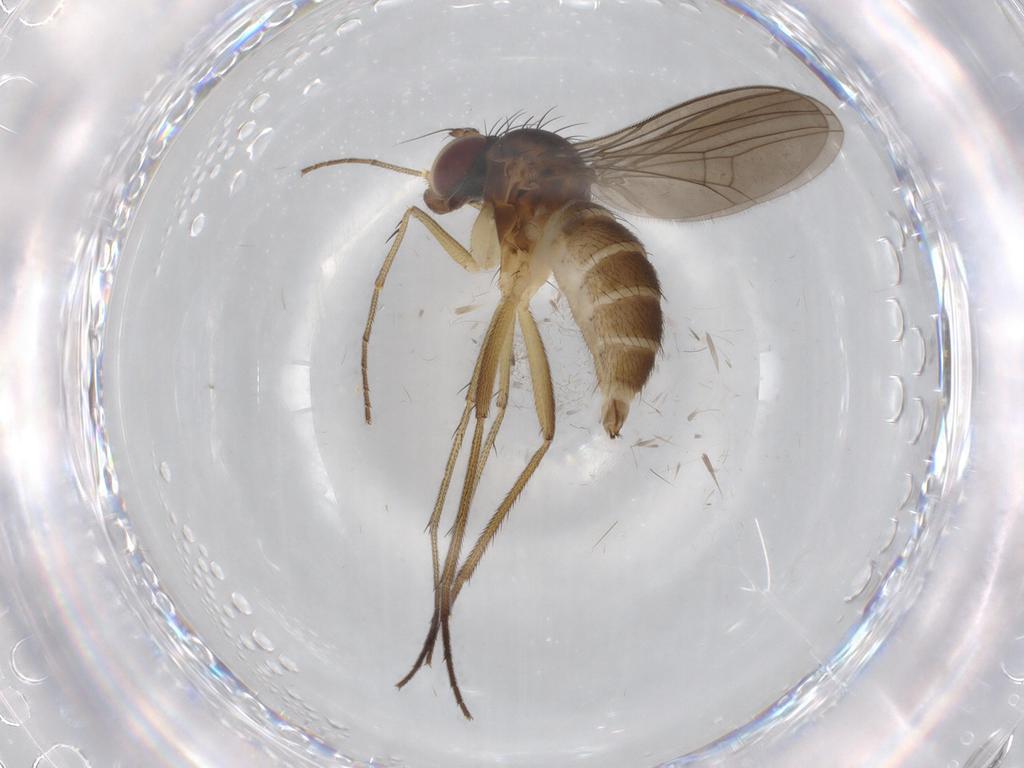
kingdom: Animalia
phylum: Arthropoda
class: Insecta
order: Diptera
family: Dolichopodidae
